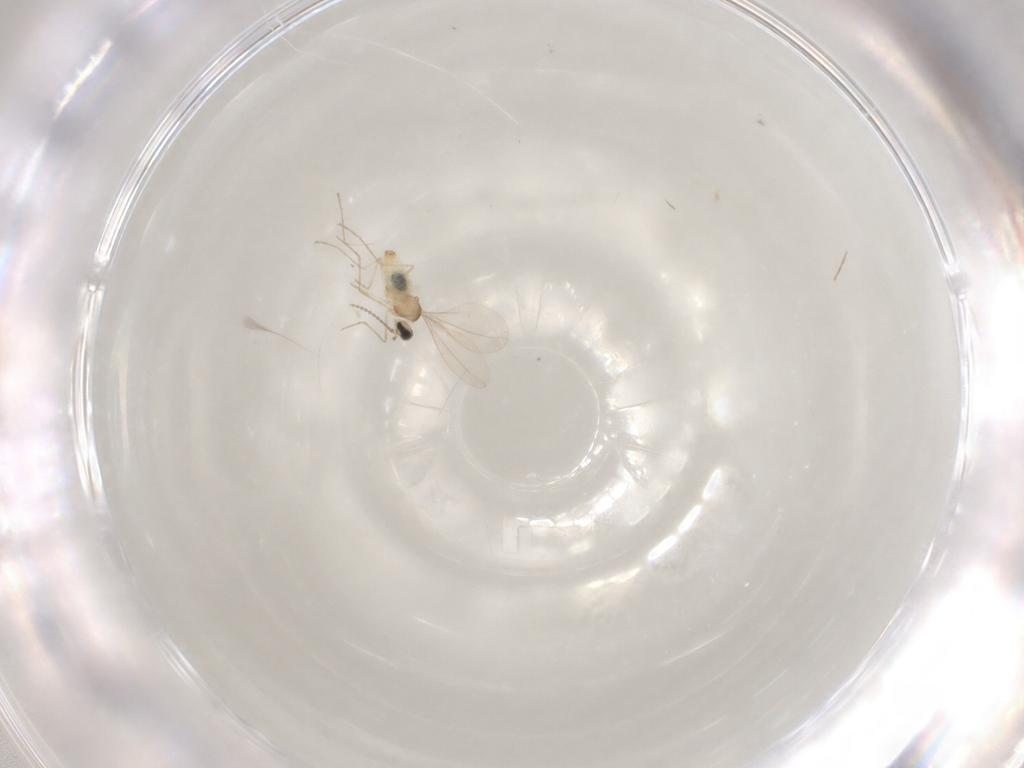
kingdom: Animalia
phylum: Arthropoda
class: Insecta
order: Diptera
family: Cecidomyiidae
